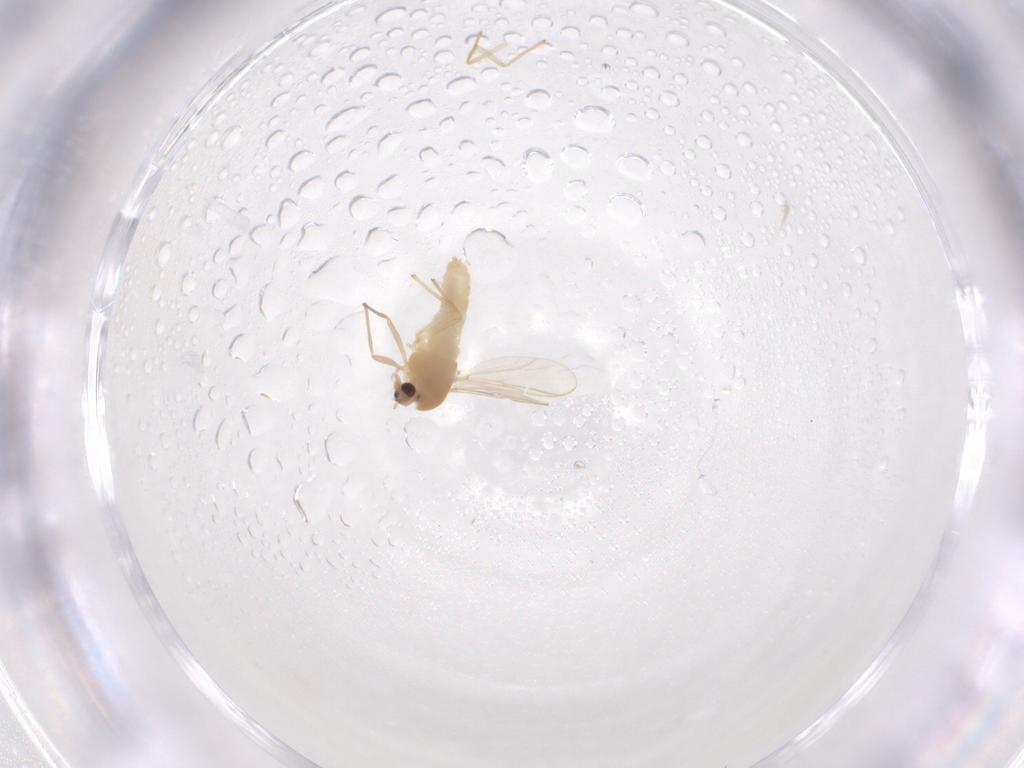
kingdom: Animalia
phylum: Arthropoda
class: Insecta
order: Diptera
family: Chironomidae
